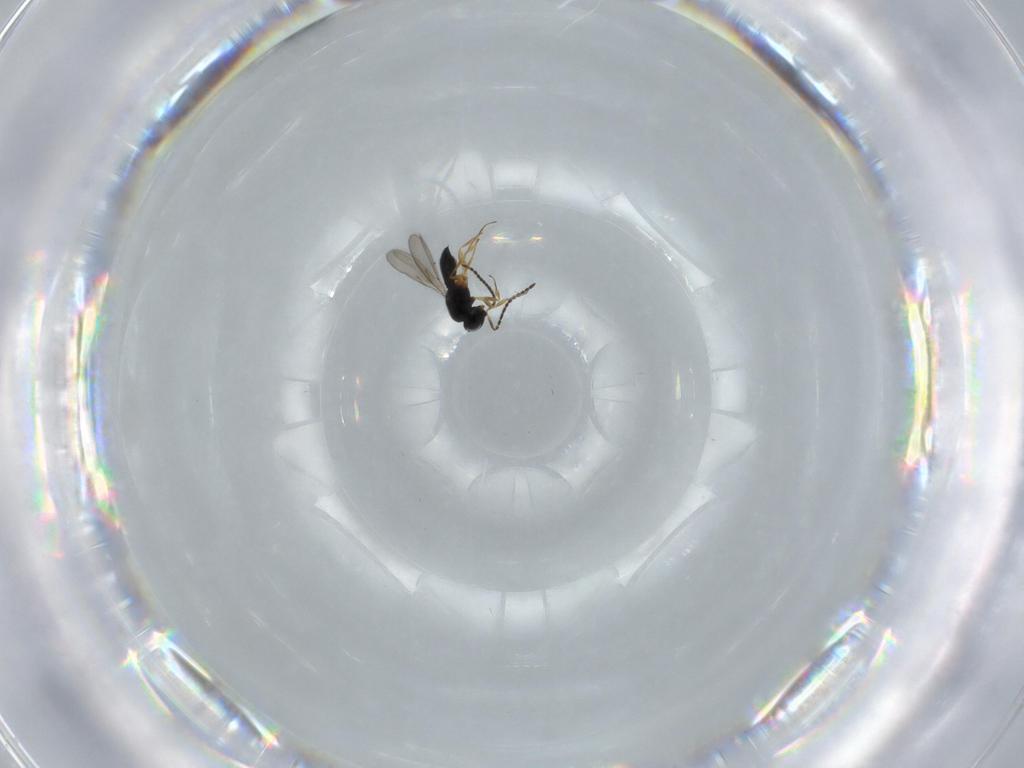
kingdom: Animalia
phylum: Arthropoda
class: Insecta
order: Hymenoptera
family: Scelionidae
